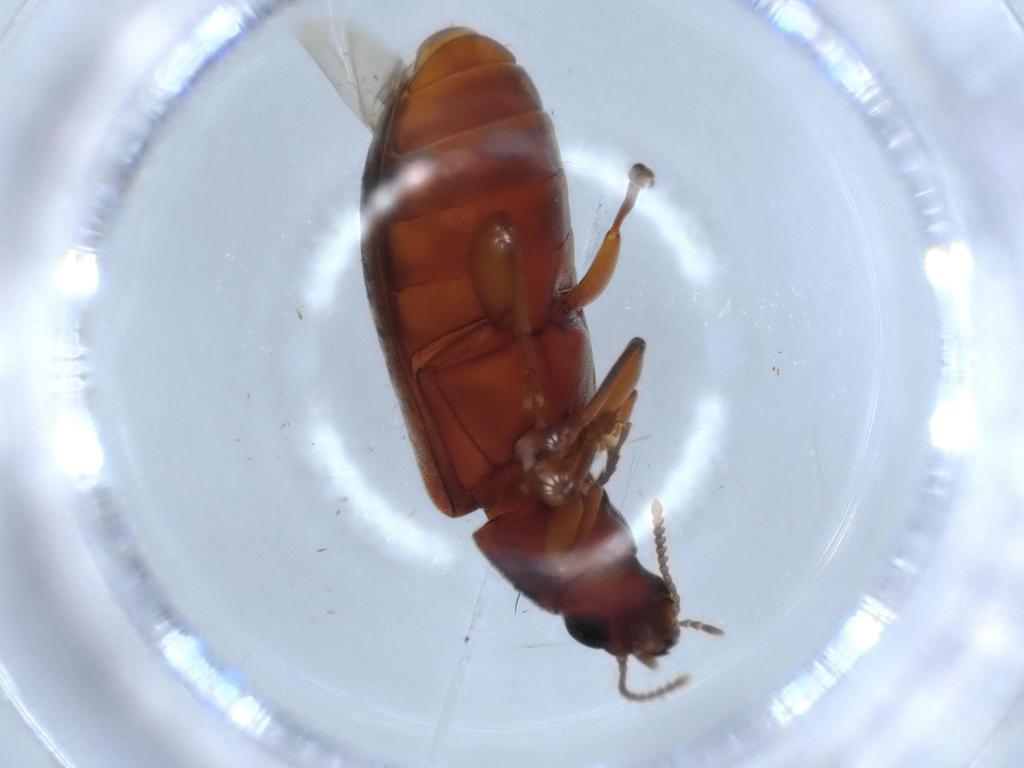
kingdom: Animalia
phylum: Arthropoda
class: Insecta
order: Coleoptera
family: Mycteridae
